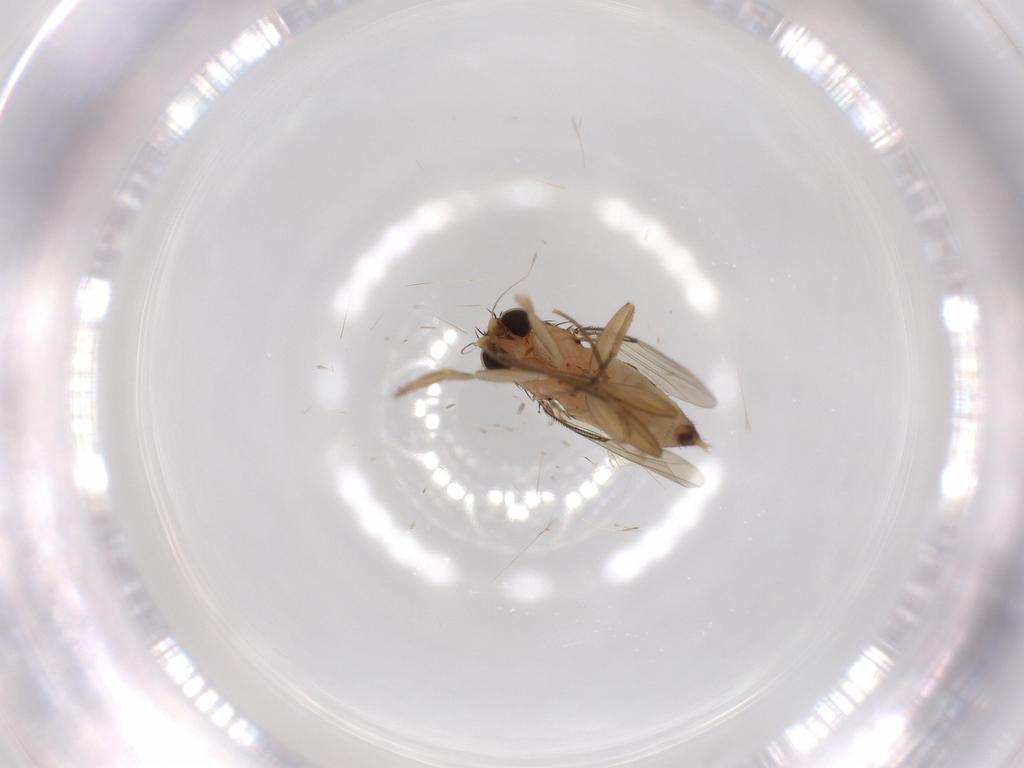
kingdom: Animalia
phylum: Arthropoda
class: Insecta
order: Diptera
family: Phoridae
